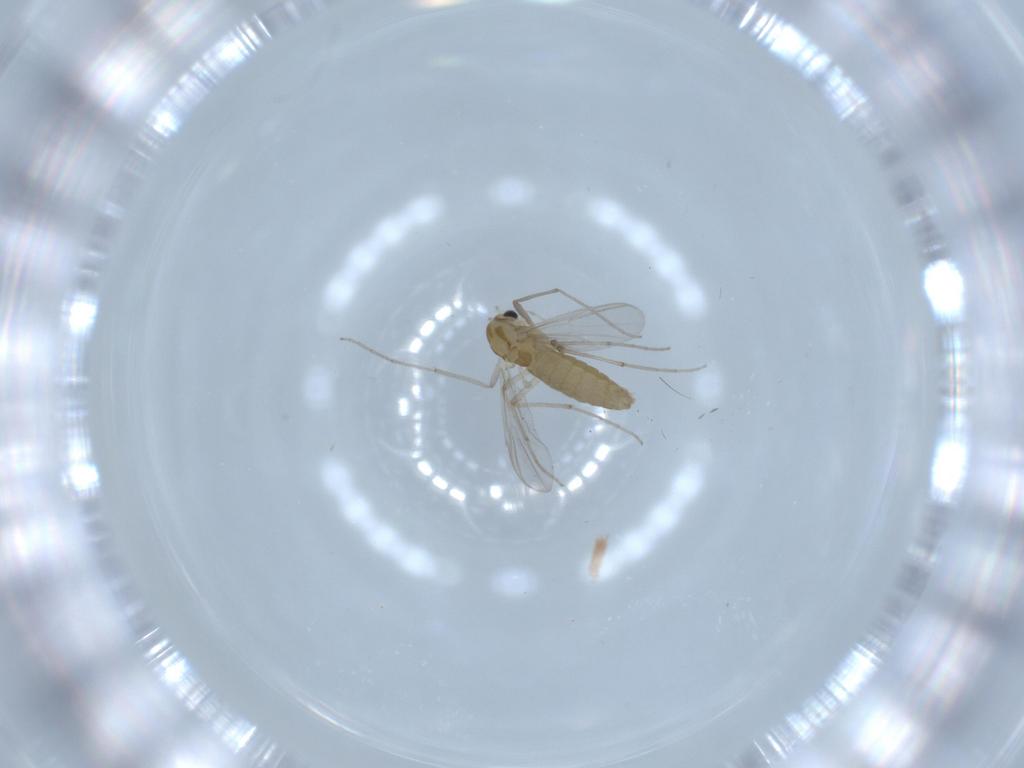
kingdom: Animalia
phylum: Arthropoda
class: Insecta
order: Diptera
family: Chironomidae
